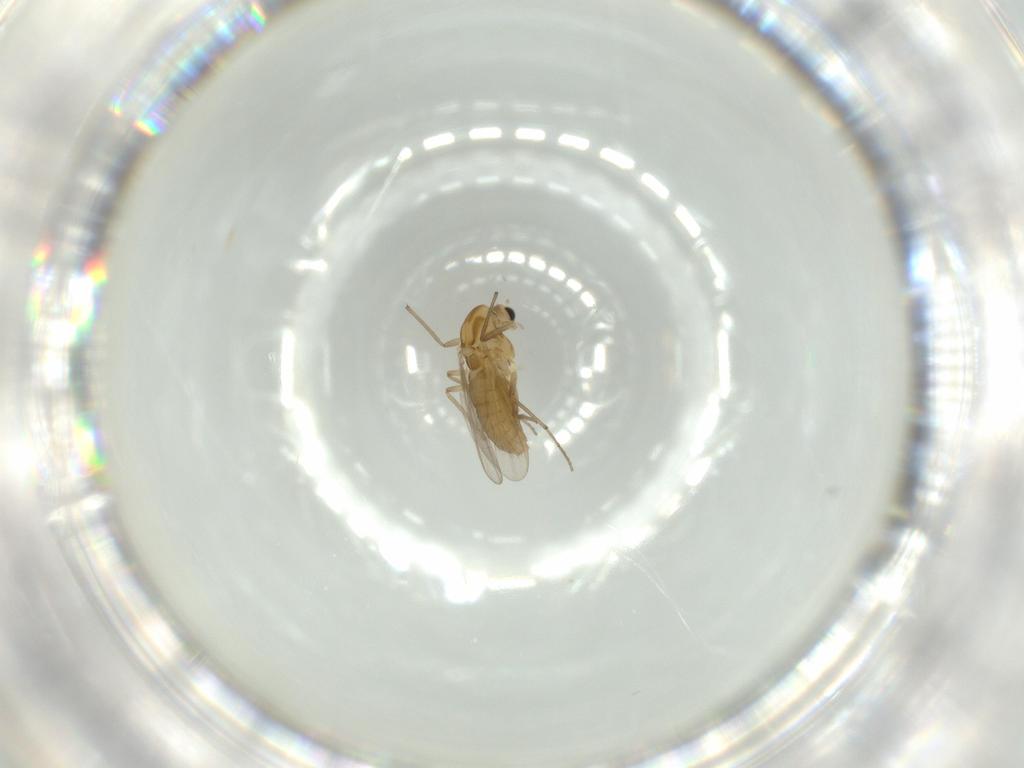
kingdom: Animalia
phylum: Arthropoda
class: Insecta
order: Diptera
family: Chironomidae
